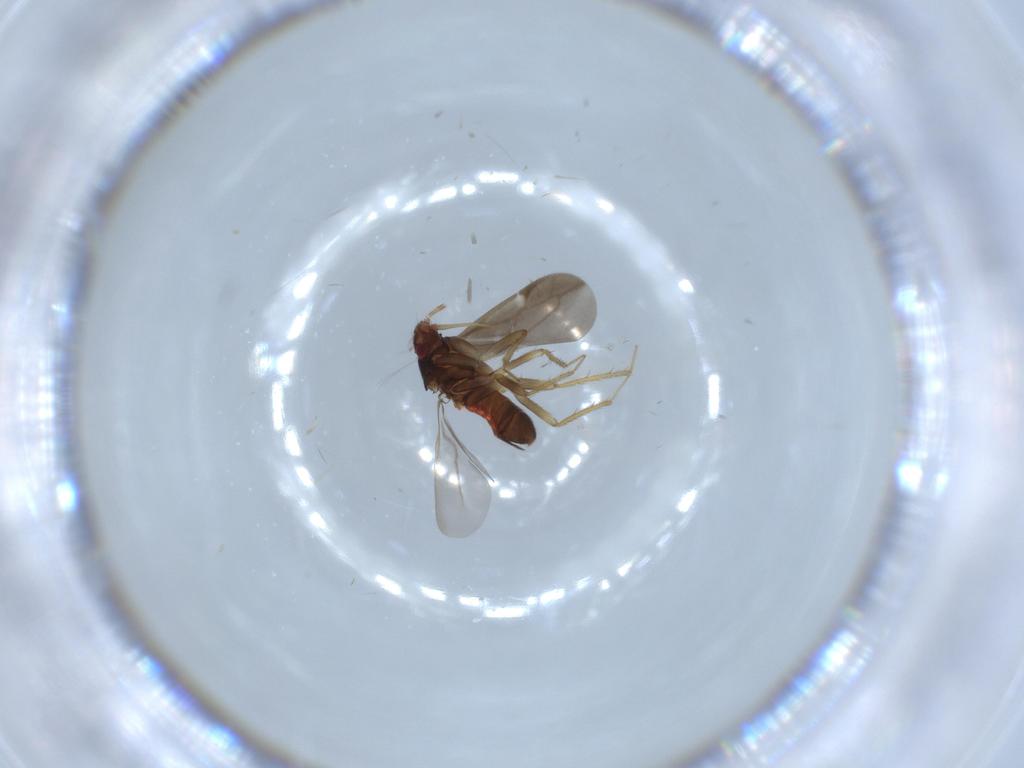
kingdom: Animalia
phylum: Arthropoda
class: Insecta
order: Hemiptera
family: Ceratocombidae
